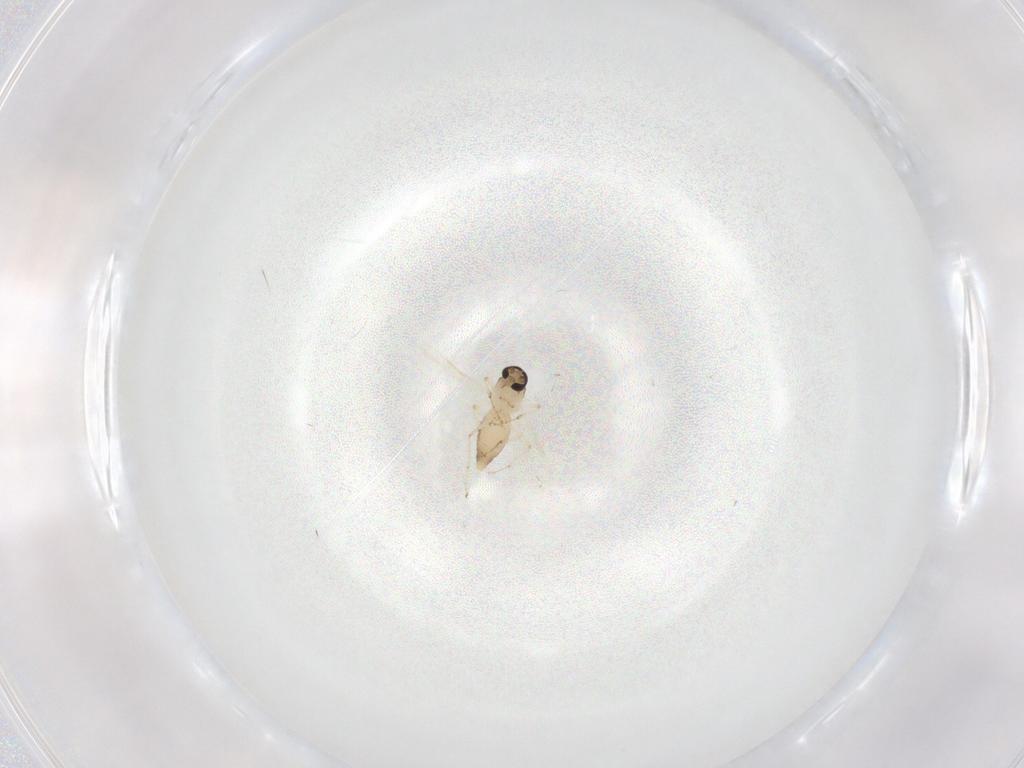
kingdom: Animalia
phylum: Arthropoda
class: Insecta
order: Diptera
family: Ceratopogonidae
